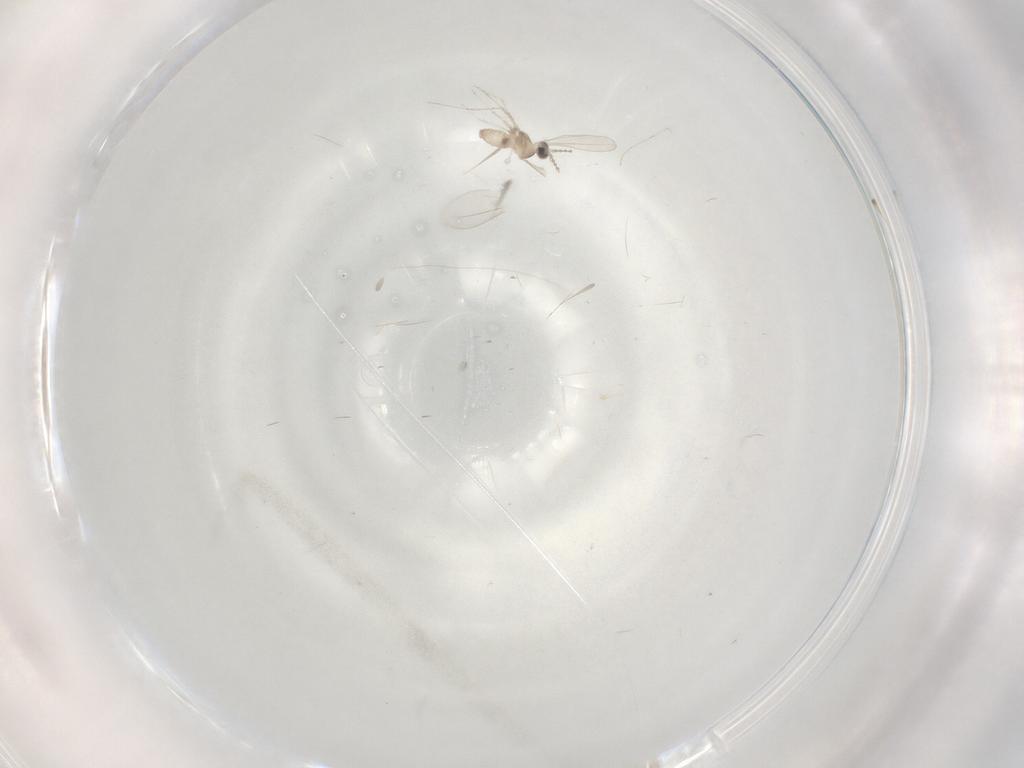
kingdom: Animalia
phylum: Arthropoda
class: Insecta
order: Diptera
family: Cecidomyiidae
